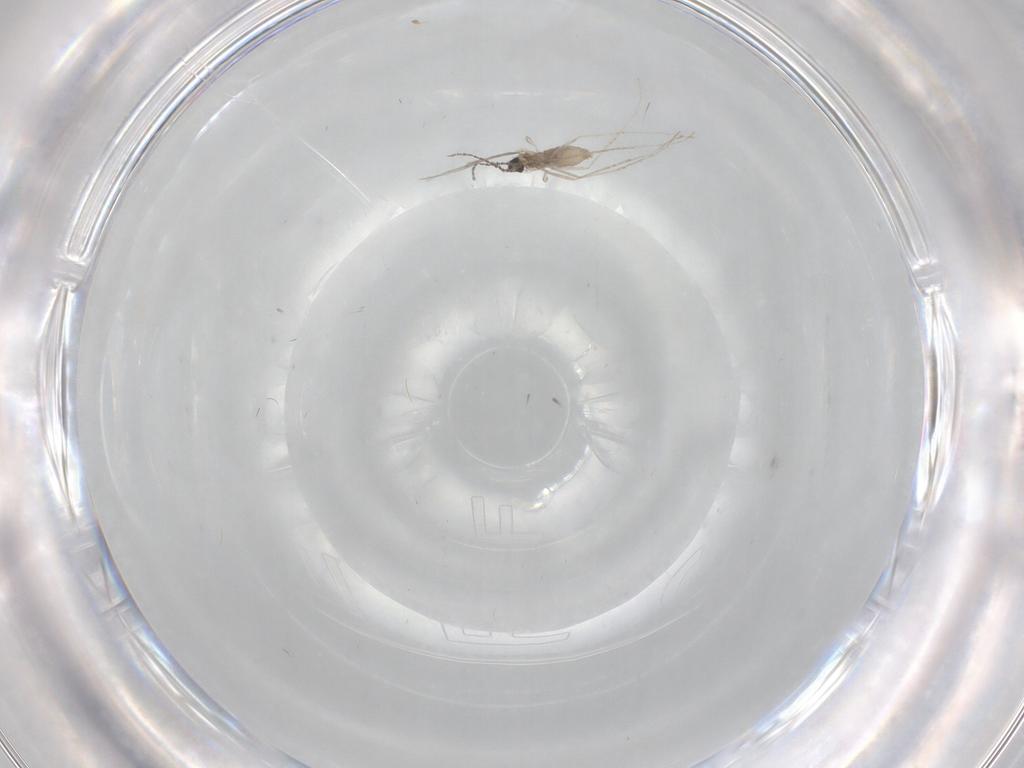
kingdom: Animalia
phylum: Arthropoda
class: Insecta
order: Diptera
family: Cecidomyiidae
